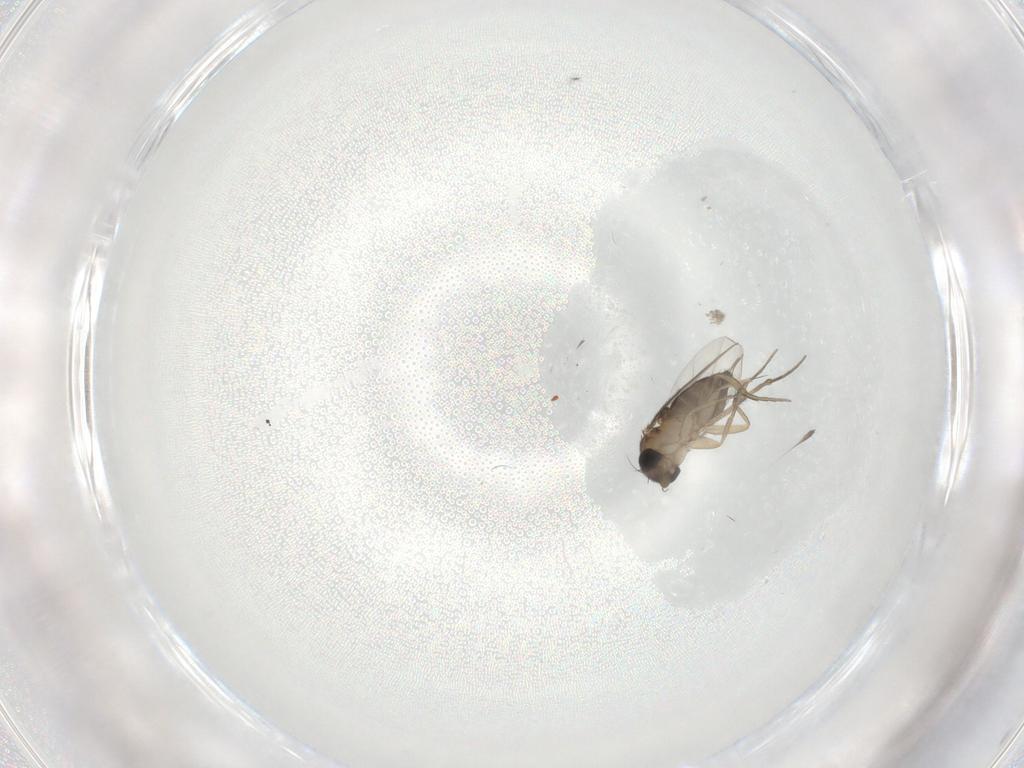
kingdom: Animalia
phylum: Arthropoda
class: Insecta
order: Diptera
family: Phoridae
